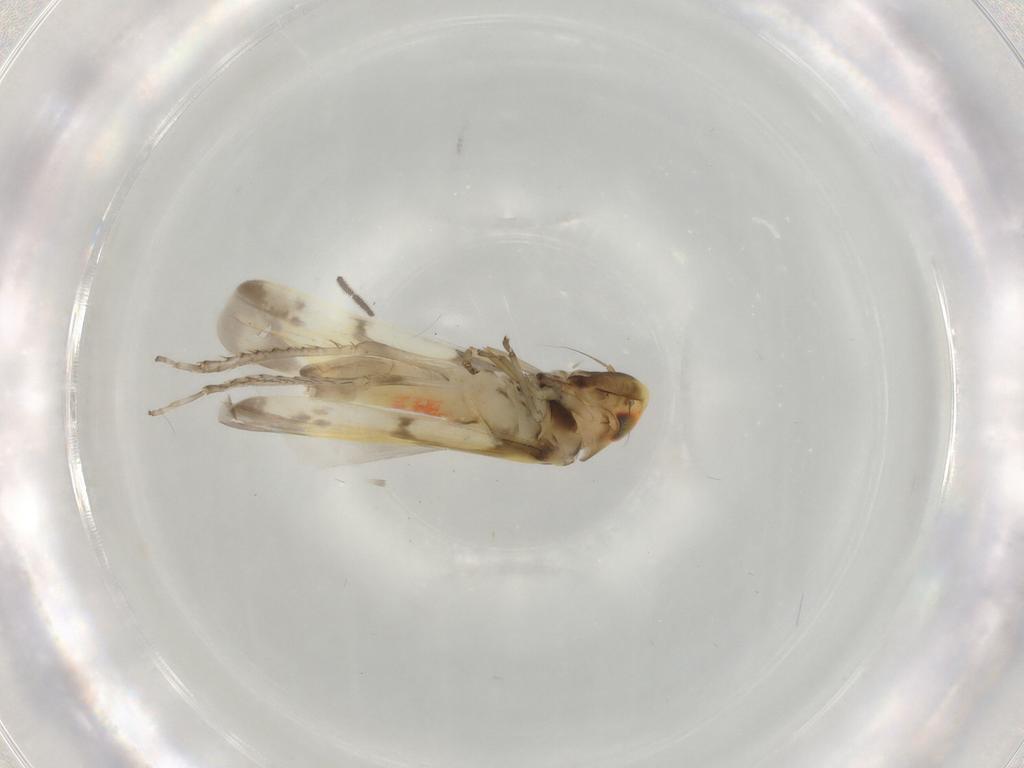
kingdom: Animalia
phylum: Arthropoda
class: Insecta
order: Hemiptera
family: Cicadellidae
